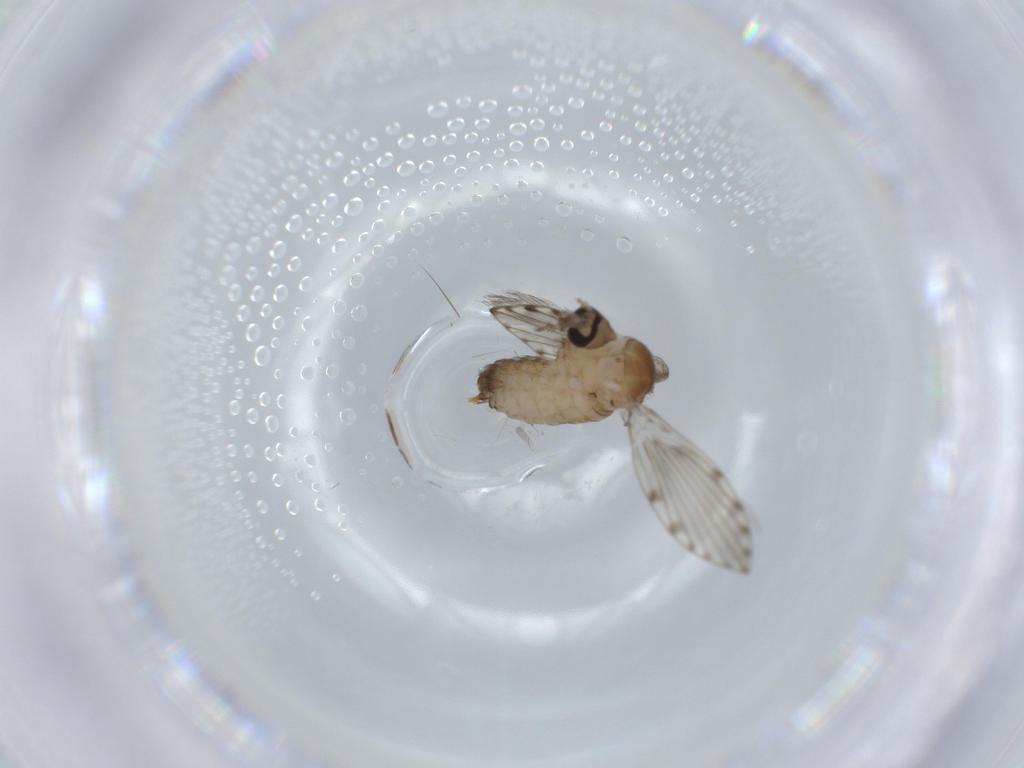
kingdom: Animalia
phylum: Arthropoda
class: Insecta
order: Diptera
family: Psychodidae
